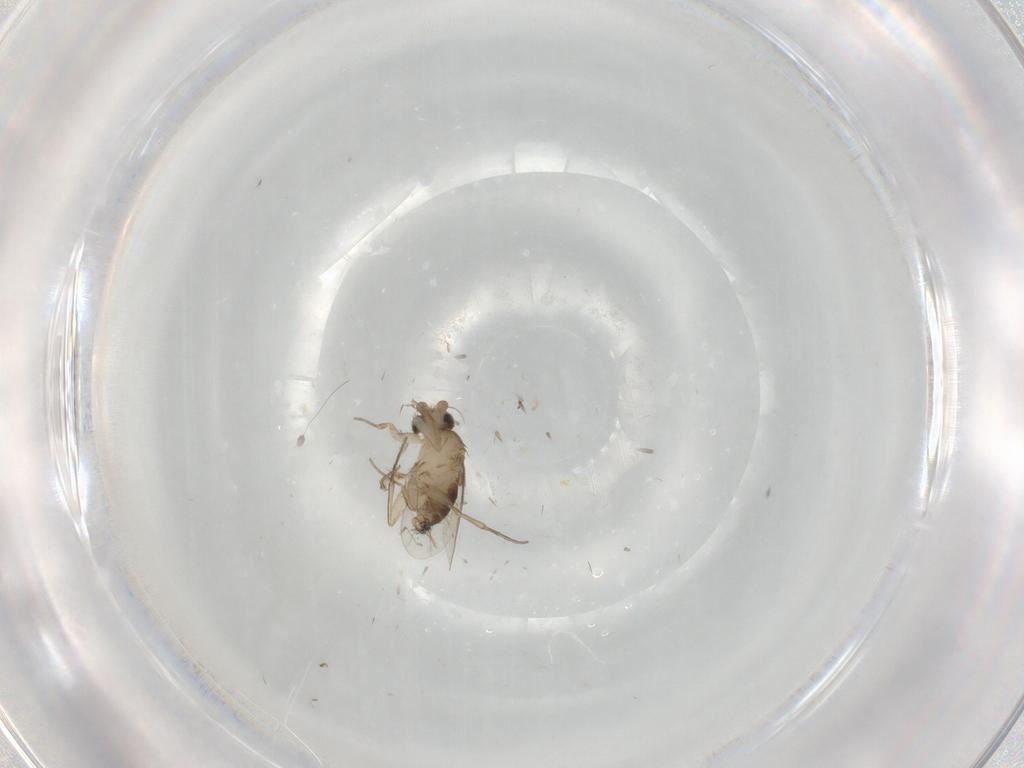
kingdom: Animalia
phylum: Arthropoda
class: Insecta
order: Diptera
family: Phoridae
